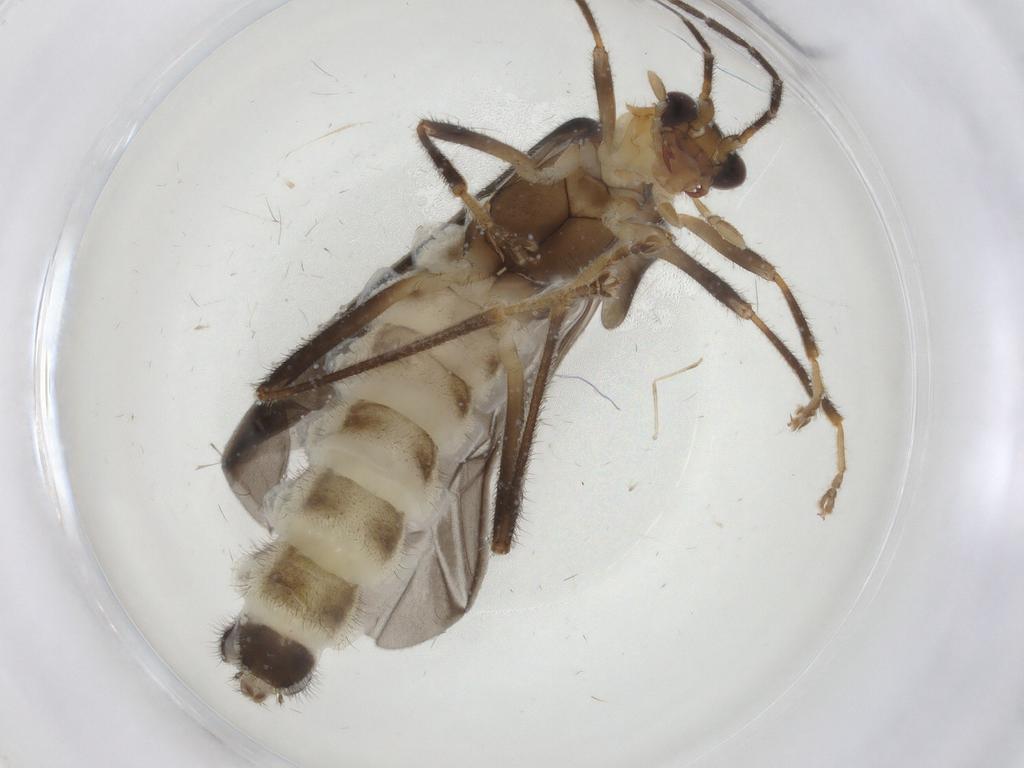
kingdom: Animalia
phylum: Arthropoda
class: Insecta
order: Coleoptera
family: Cantharidae
